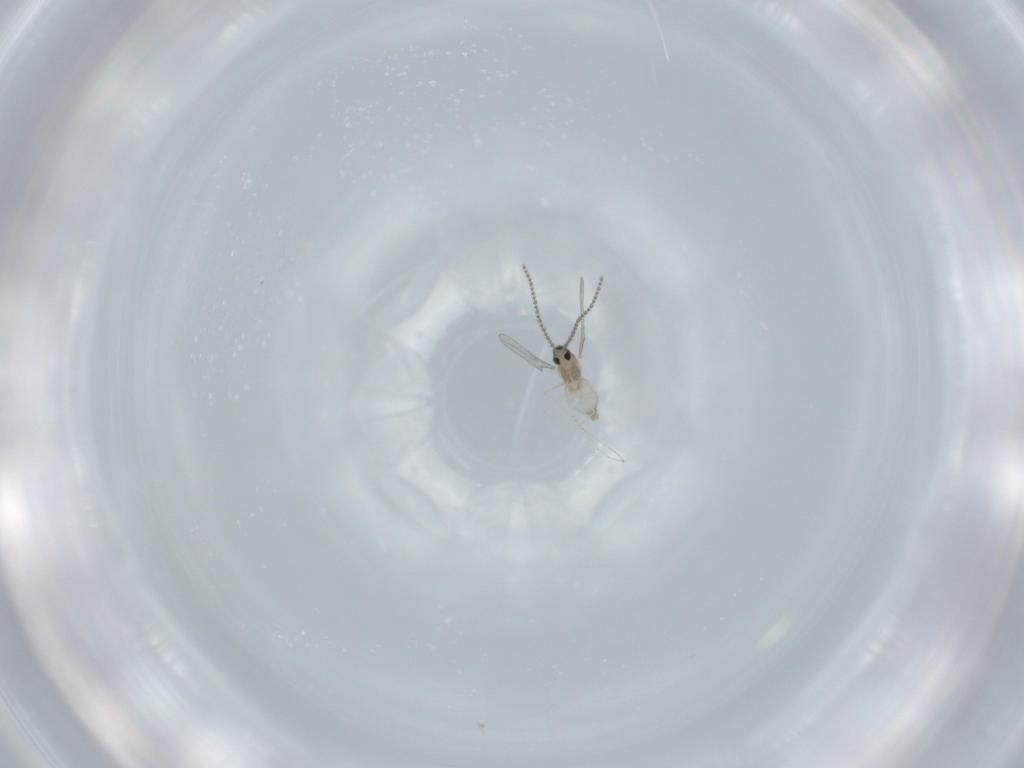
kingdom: Animalia
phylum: Arthropoda
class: Insecta
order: Diptera
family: Cecidomyiidae
